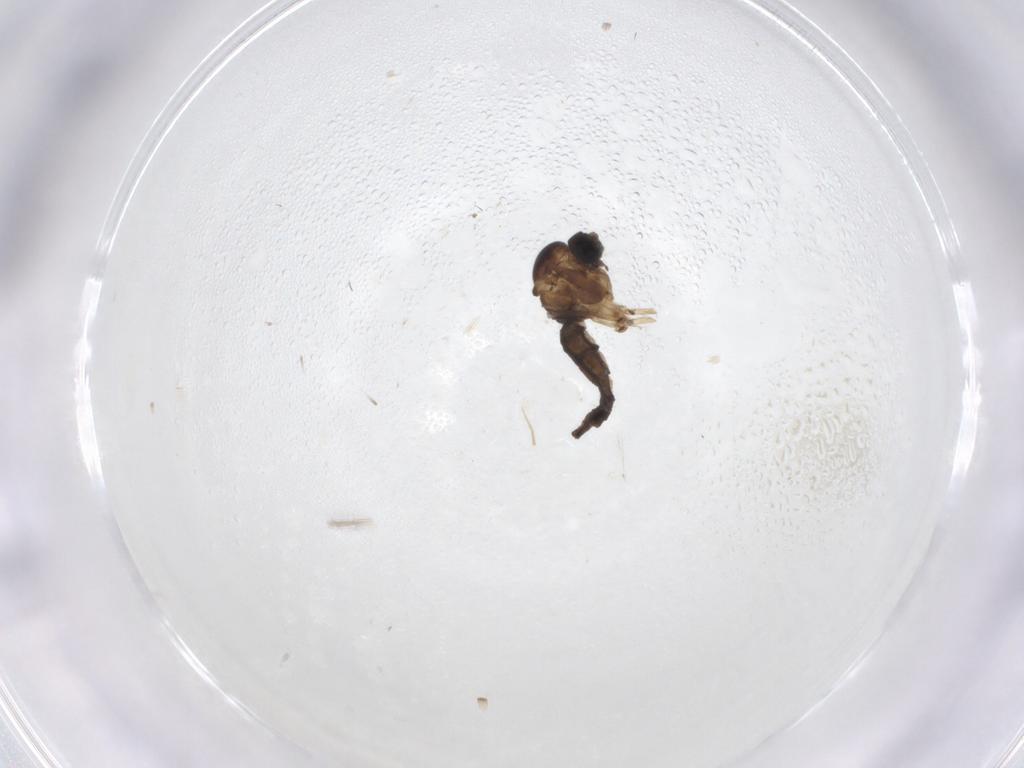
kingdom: Animalia
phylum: Arthropoda
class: Insecta
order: Diptera
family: Sciaridae
